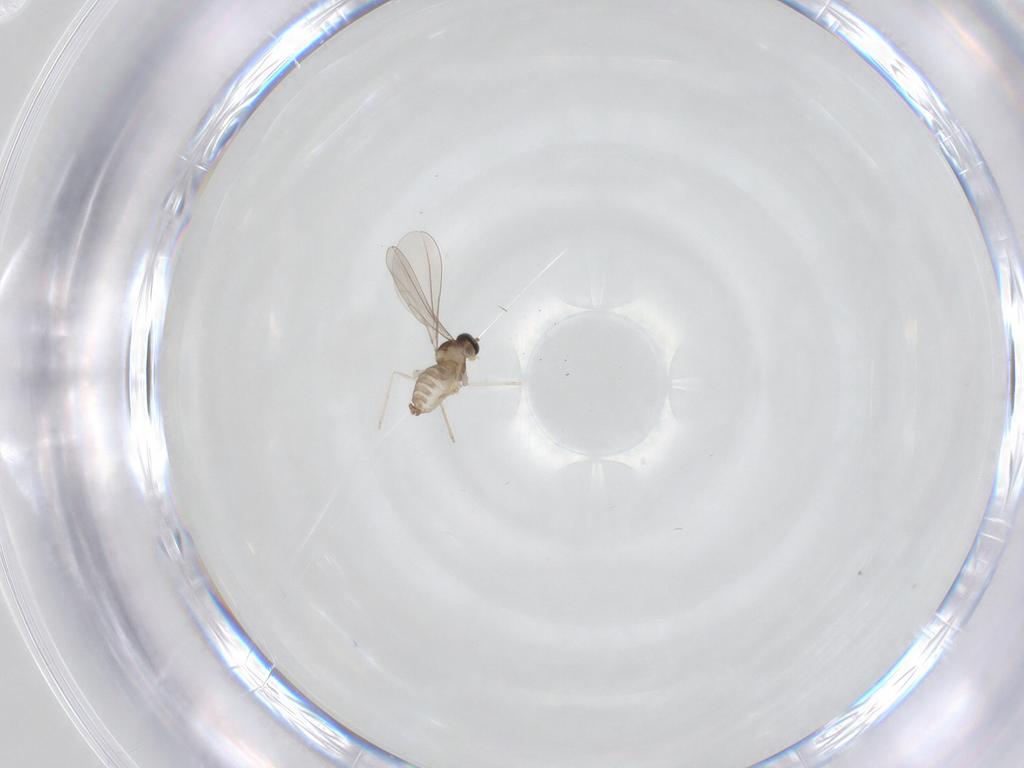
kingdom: Animalia
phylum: Arthropoda
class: Insecta
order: Diptera
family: Cecidomyiidae
